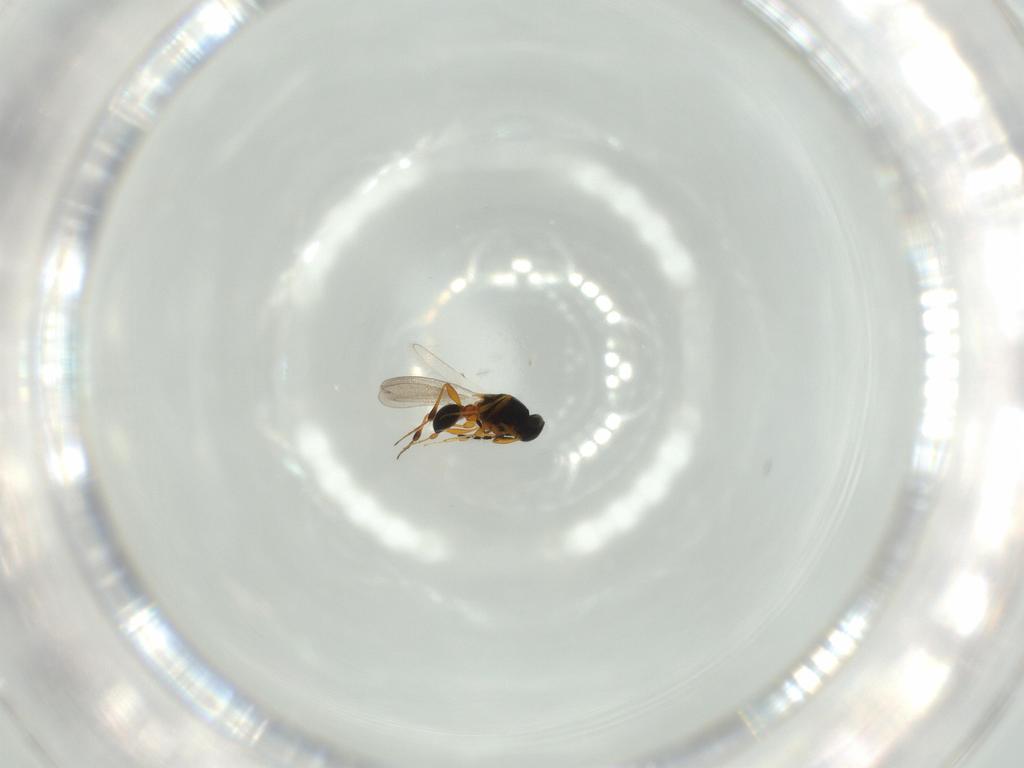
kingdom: Animalia
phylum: Arthropoda
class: Insecta
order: Hymenoptera
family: Platygastridae
